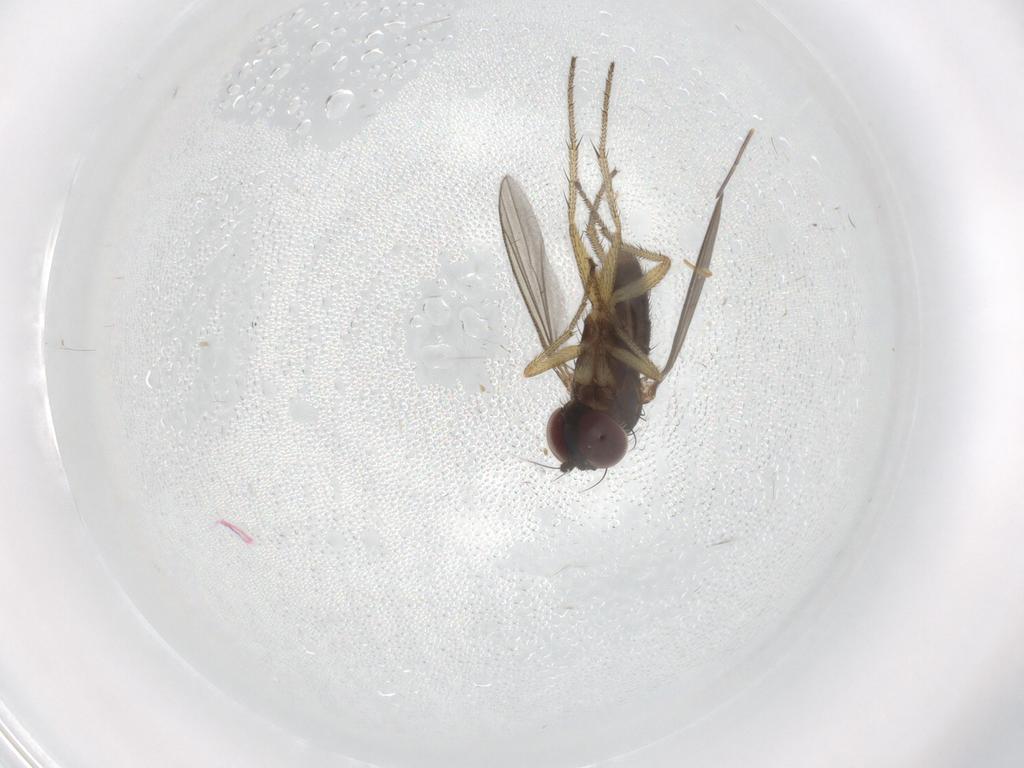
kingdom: Animalia
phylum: Arthropoda
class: Insecta
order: Diptera
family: Dolichopodidae
